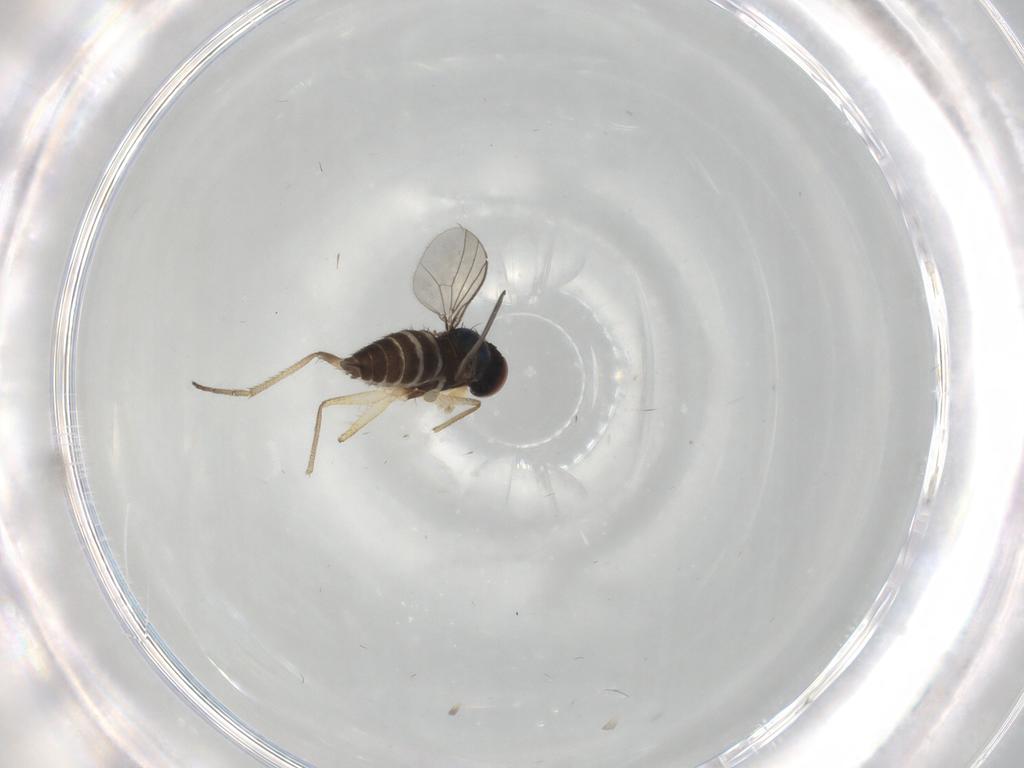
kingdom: Animalia
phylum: Arthropoda
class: Insecta
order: Diptera
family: Dolichopodidae
